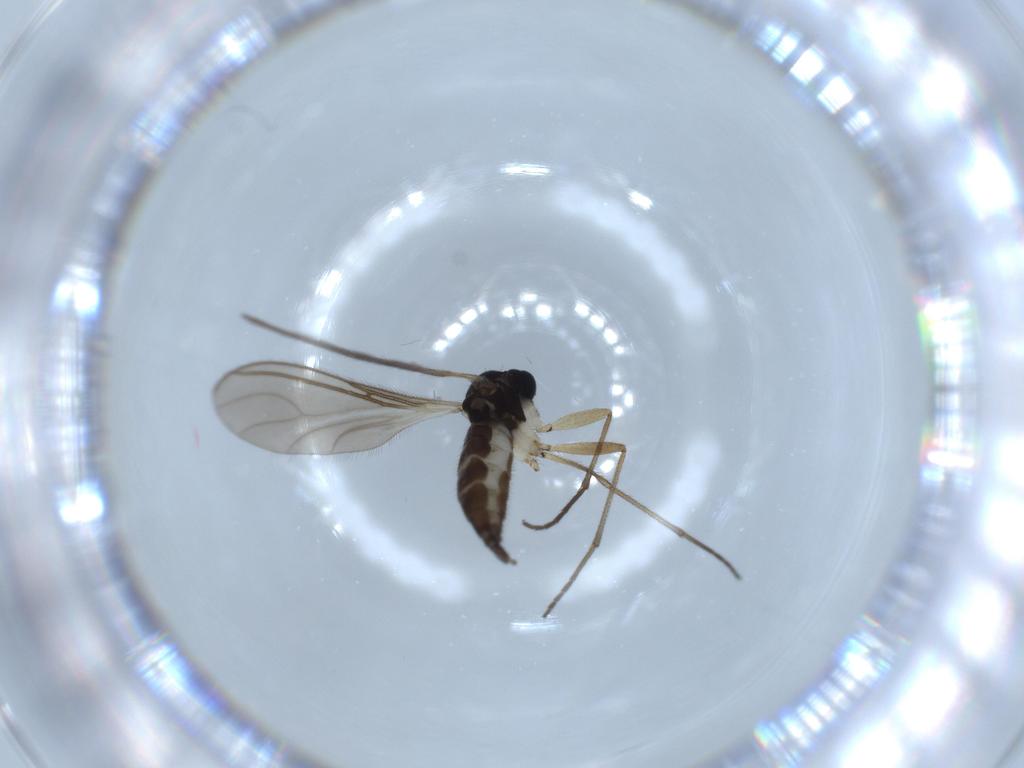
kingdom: Animalia
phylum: Arthropoda
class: Insecta
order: Diptera
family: Sciaridae
